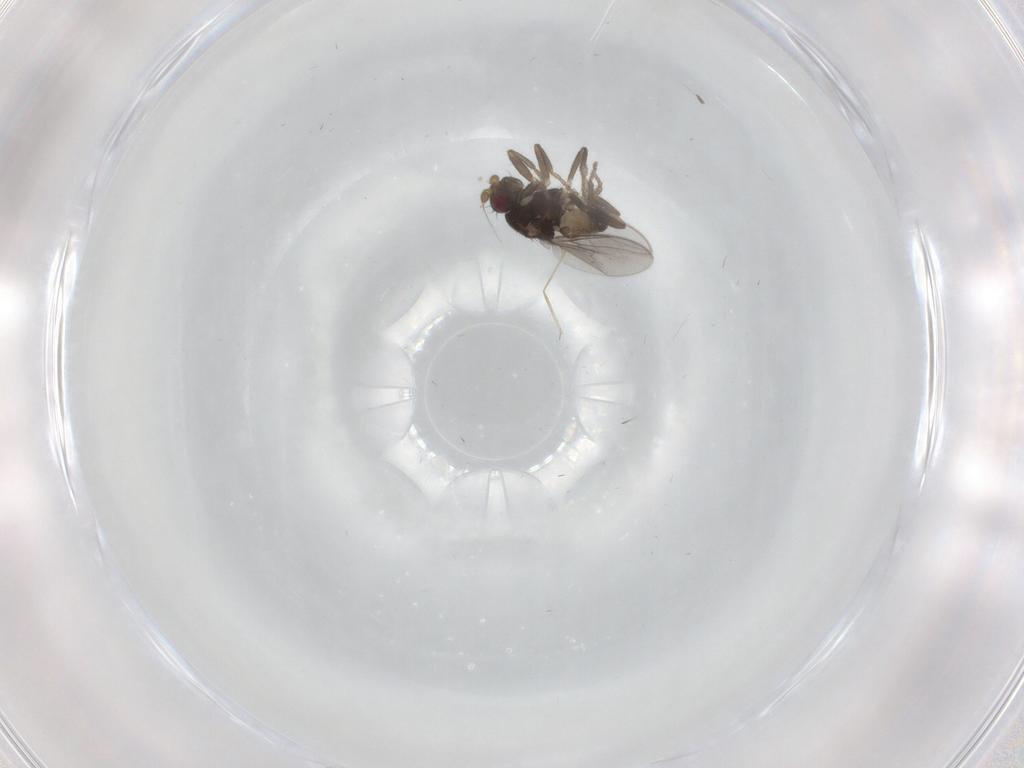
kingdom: Animalia
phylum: Arthropoda
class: Insecta
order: Diptera
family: Sphaeroceridae
